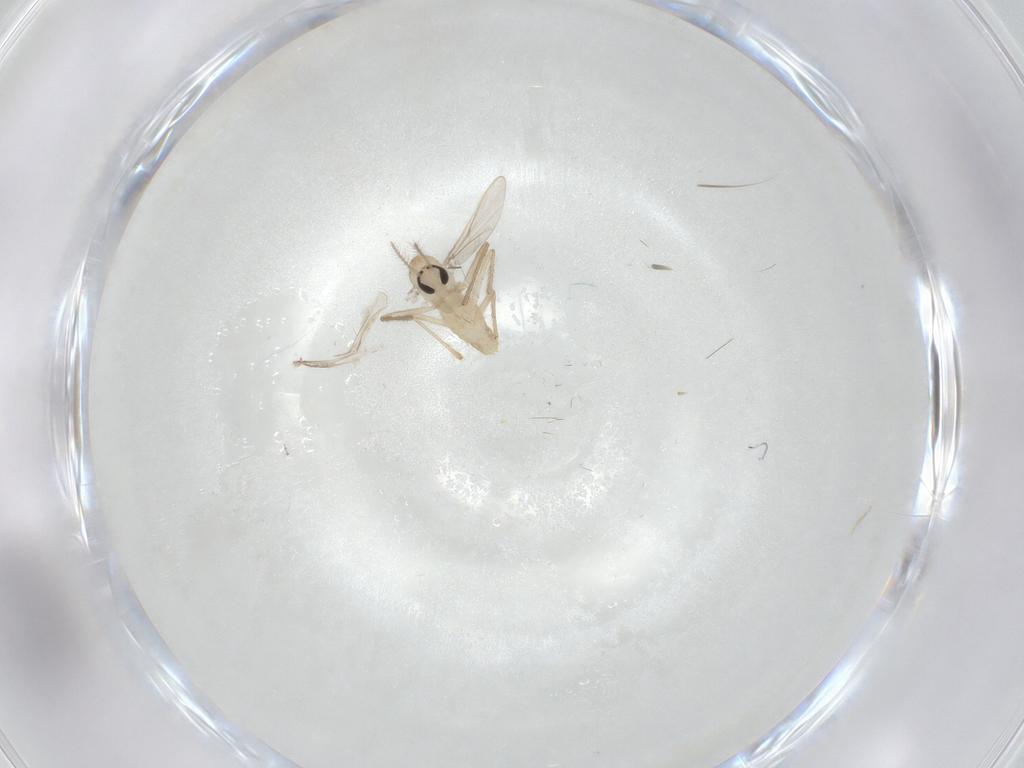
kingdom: Animalia
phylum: Arthropoda
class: Insecta
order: Diptera
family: Chironomidae
